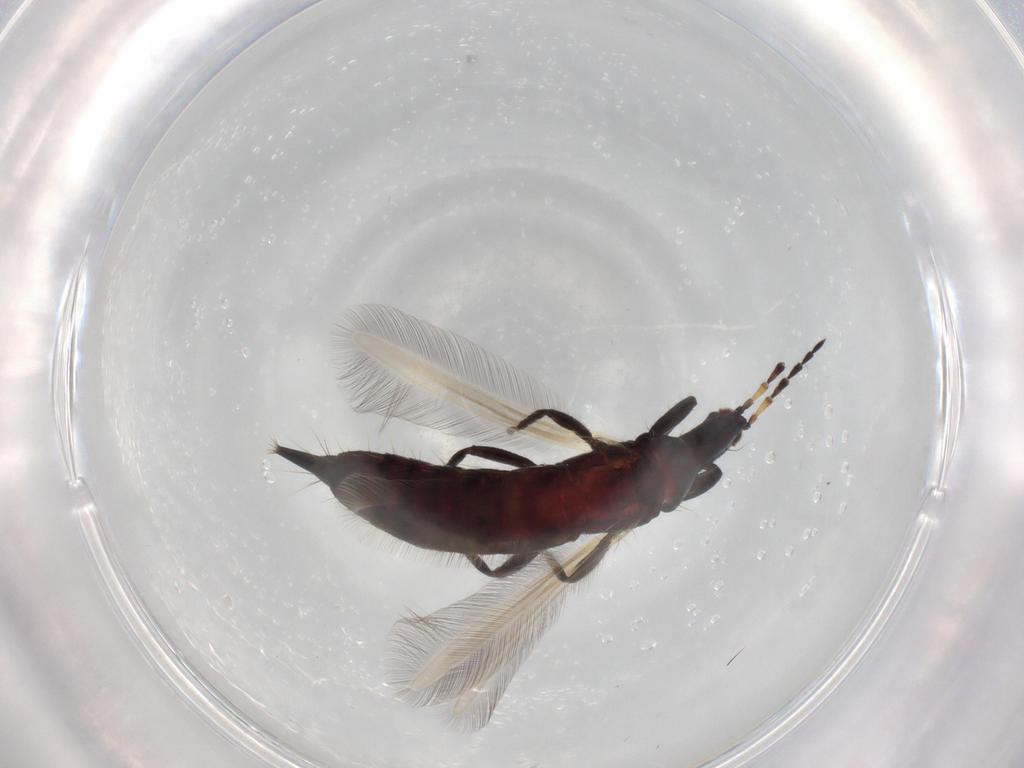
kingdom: Animalia
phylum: Arthropoda
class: Insecta
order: Thysanoptera
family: Phlaeothripidae
